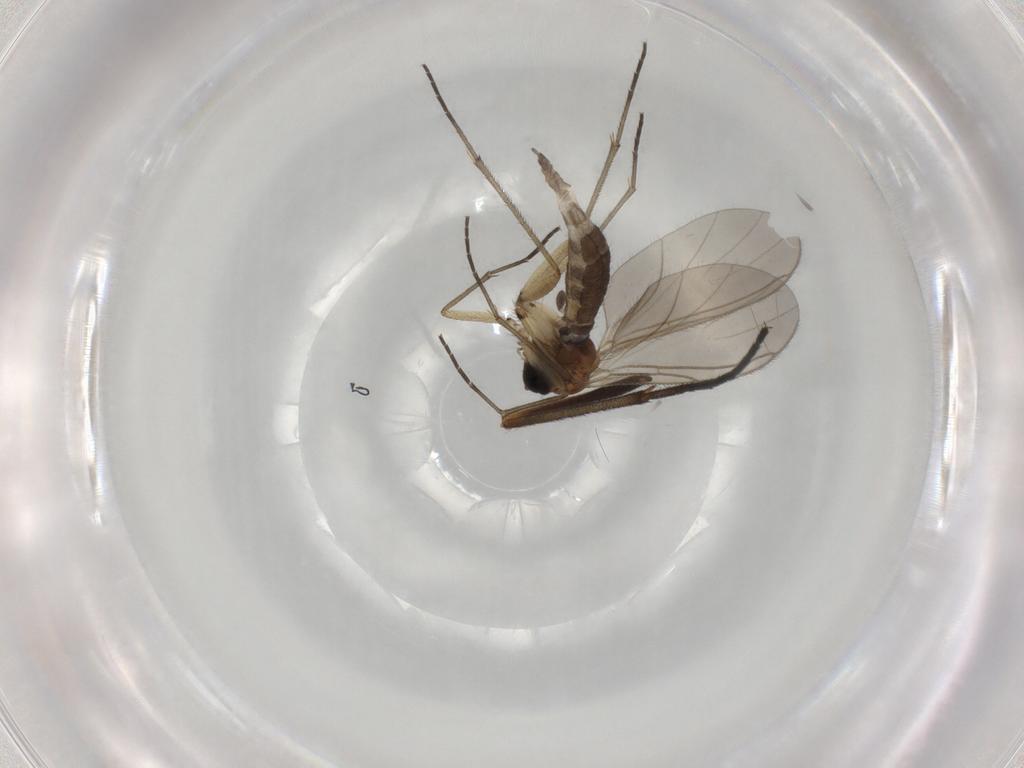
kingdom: Animalia
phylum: Arthropoda
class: Insecta
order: Diptera
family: Sciaridae
